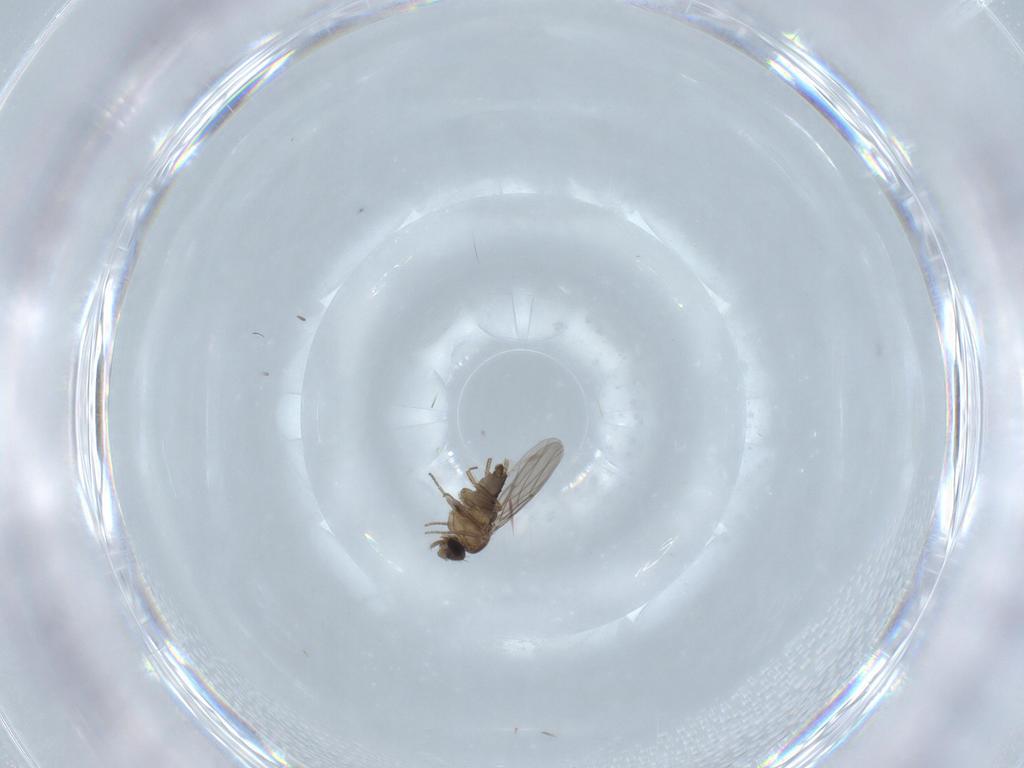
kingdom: Animalia
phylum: Arthropoda
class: Insecta
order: Diptera
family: Phoridae
